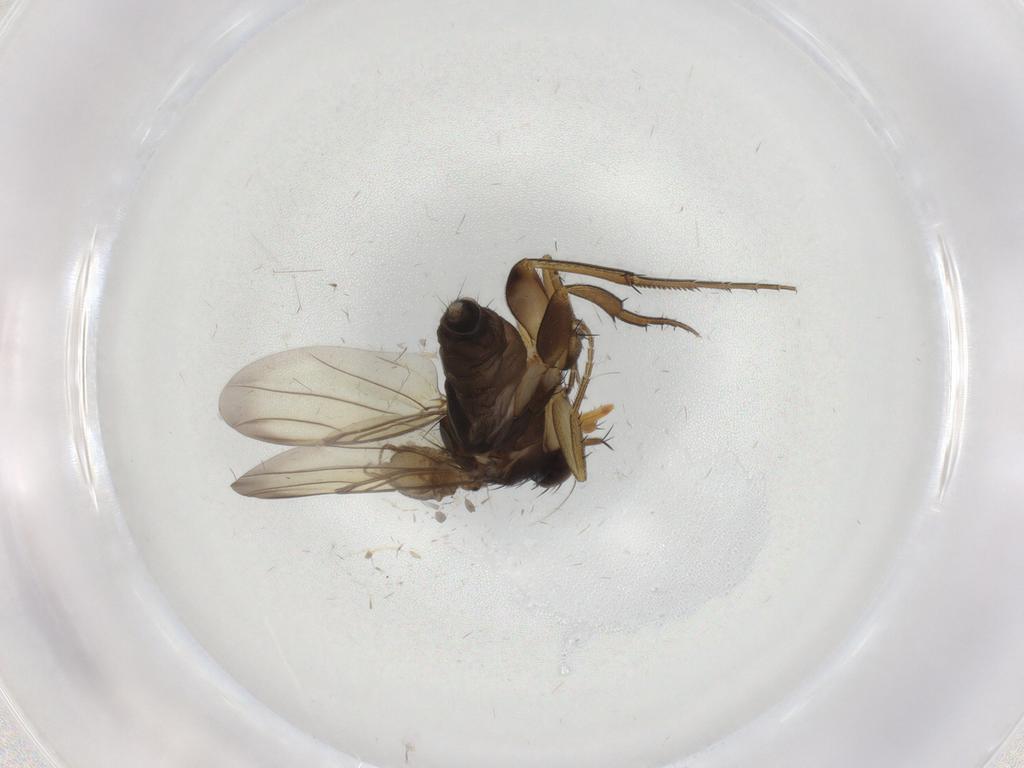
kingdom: Animalia
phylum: Arthropoda
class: Insecta
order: Diptera
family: Phoridae
